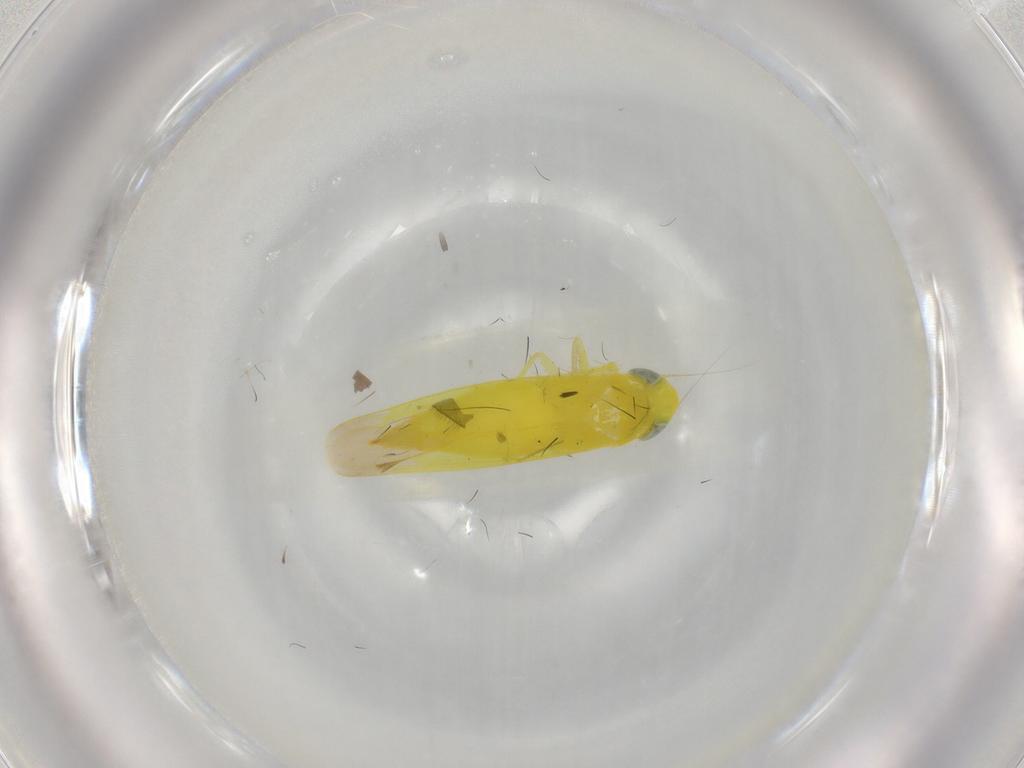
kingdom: Animalia
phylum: Arthropoda
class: Insecta
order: Hemiptera
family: Cicadellidae
